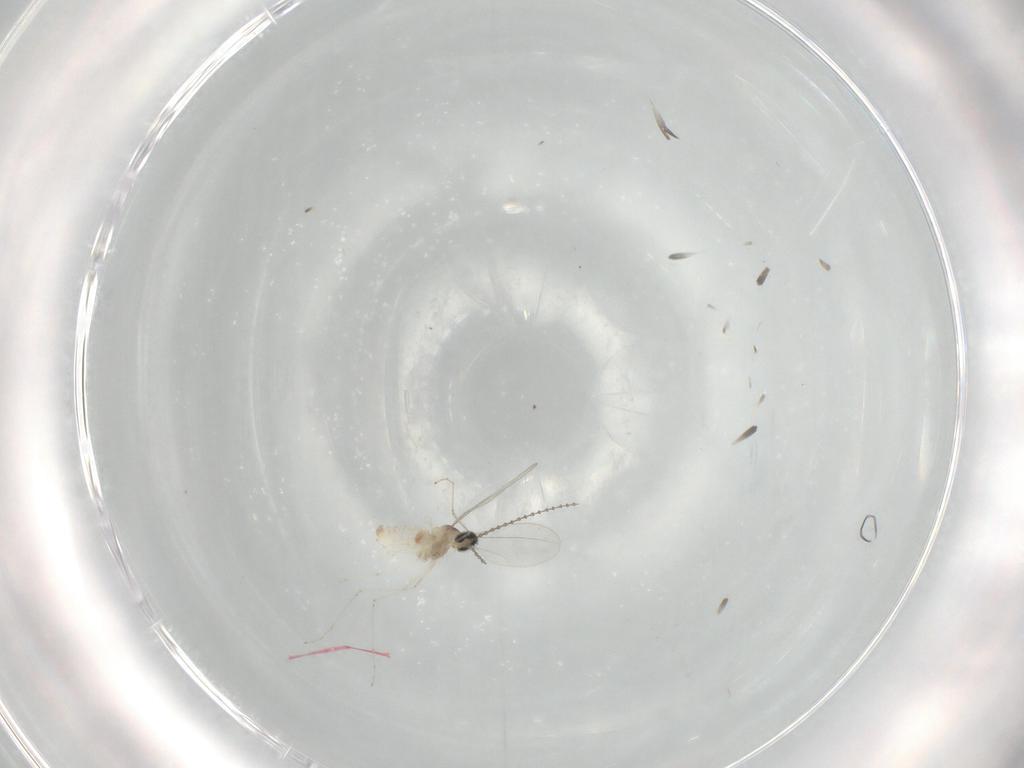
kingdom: Animalia
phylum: Arthropoda
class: Insecta
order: Diptera
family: Cecidomyiidae
